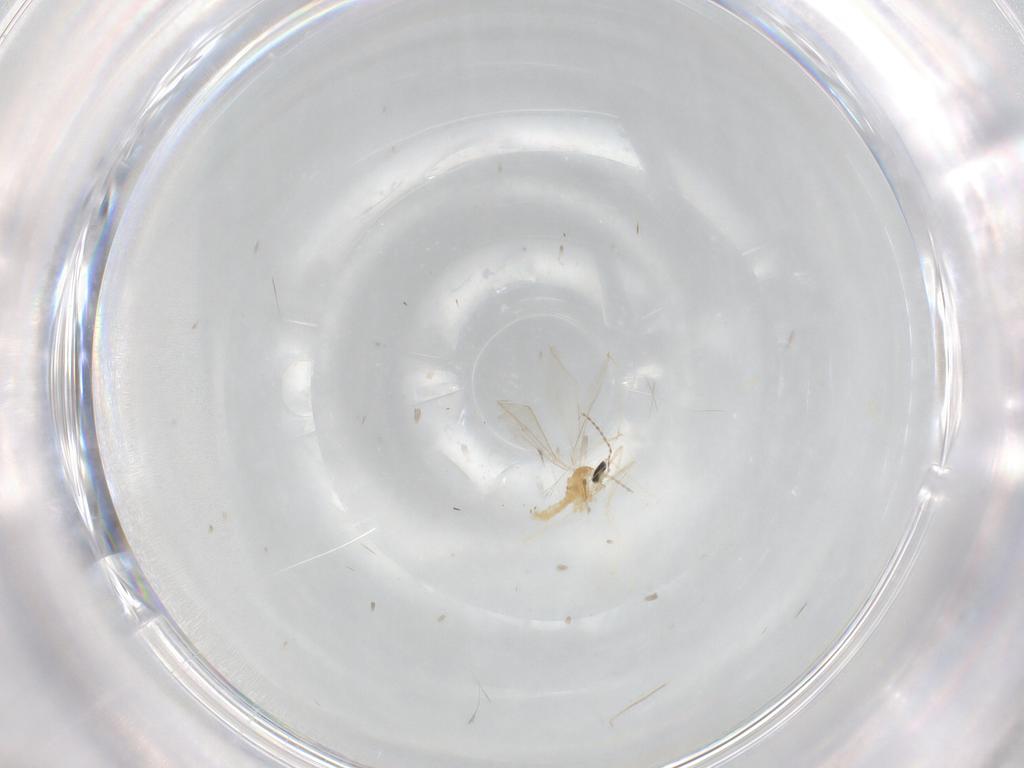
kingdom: Animalia
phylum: Arthropoda
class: Insecta
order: Diptera
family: Cecidomyiidae
